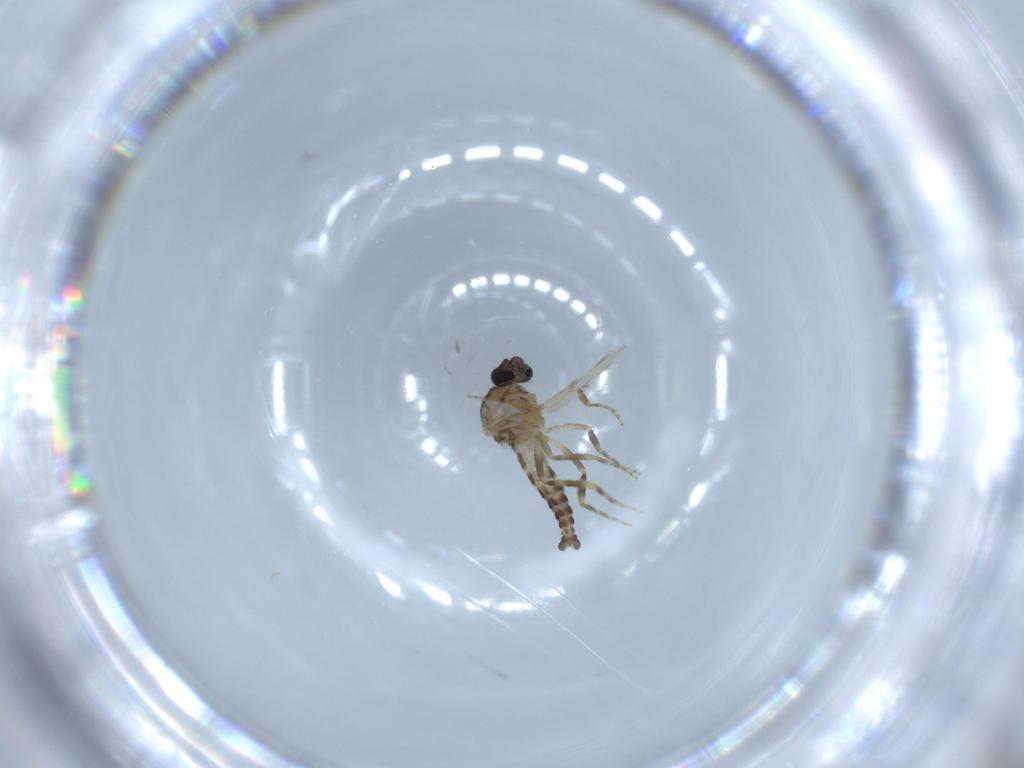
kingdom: Animalia
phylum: Arthropoda
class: Insecta
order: Diptera
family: Ceratopogonidae
